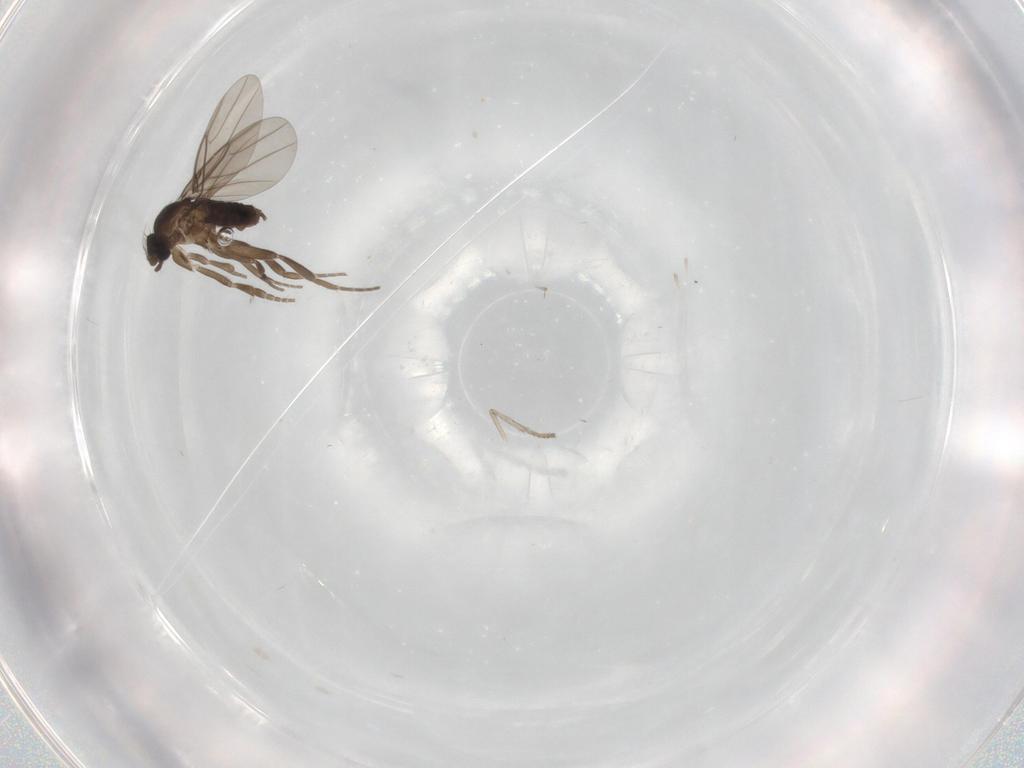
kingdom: Animalia
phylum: Arthropoda
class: Insecta
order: Diptera
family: Phoridae
